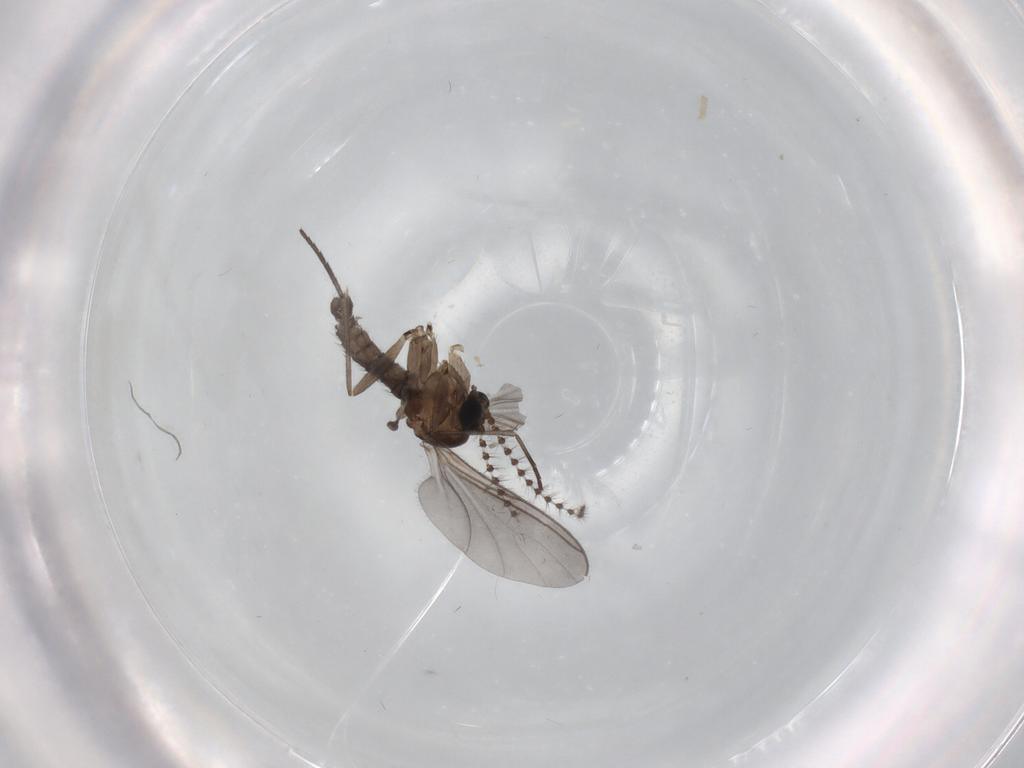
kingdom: Animalia
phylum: Arthropoda
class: Insecta
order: Diptera
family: Sciaridae
